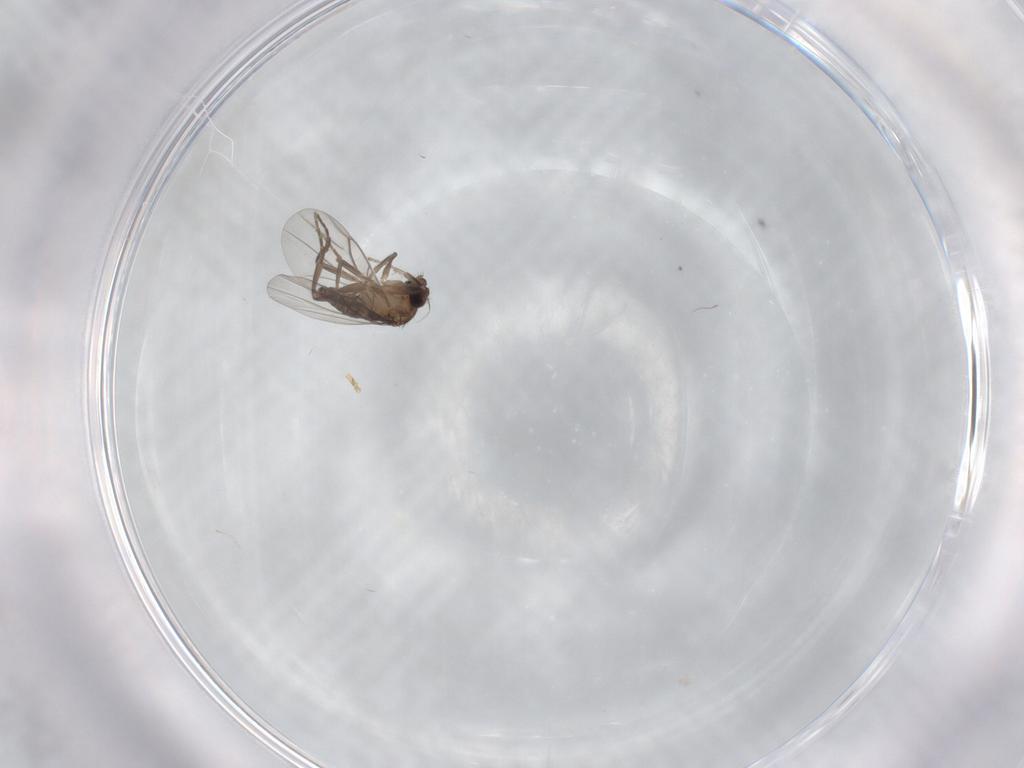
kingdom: Animalia
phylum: Arthropoda
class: Insecta
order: Diptera
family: Cecidomyiidae
